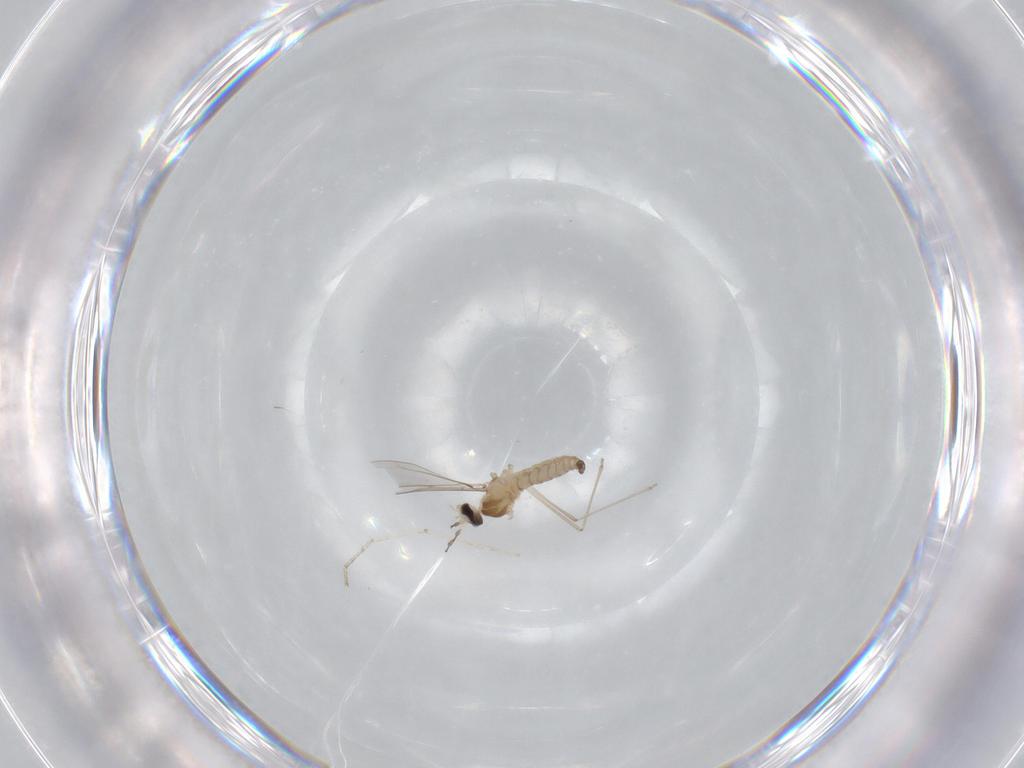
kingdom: Animalia
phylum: Arthropoda
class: Insecta
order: Diptera
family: Cecidomyiidae
